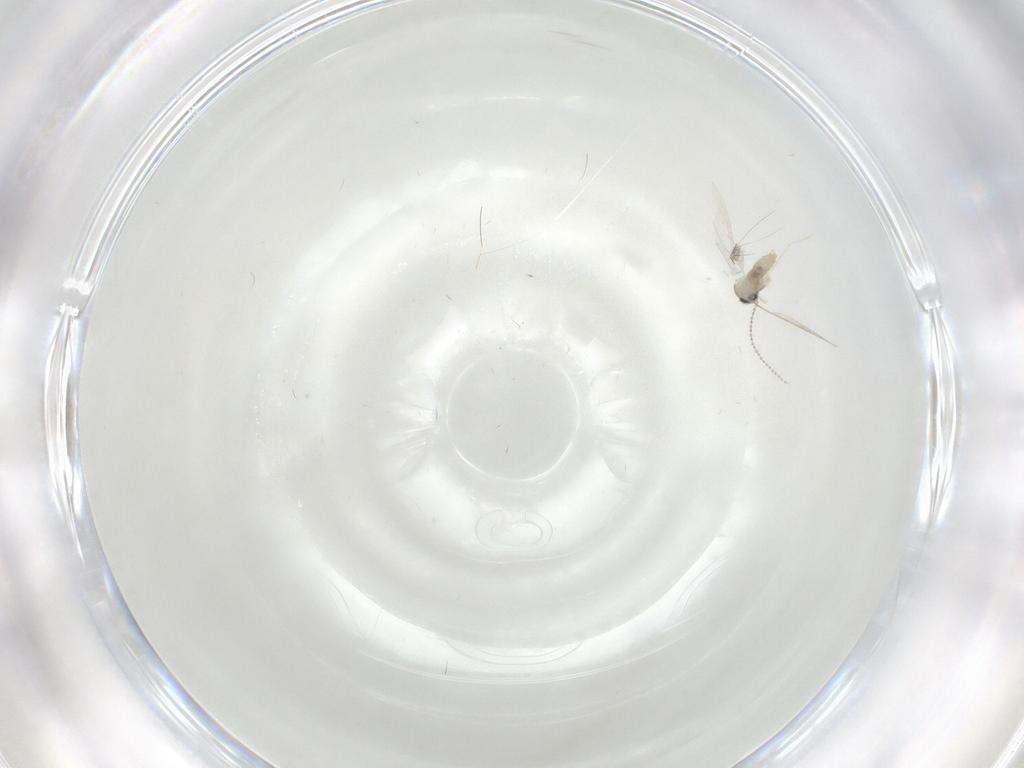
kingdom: Animalia
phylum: Arthropoda
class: Insecta
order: Diptera
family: Cecidomyiidae
